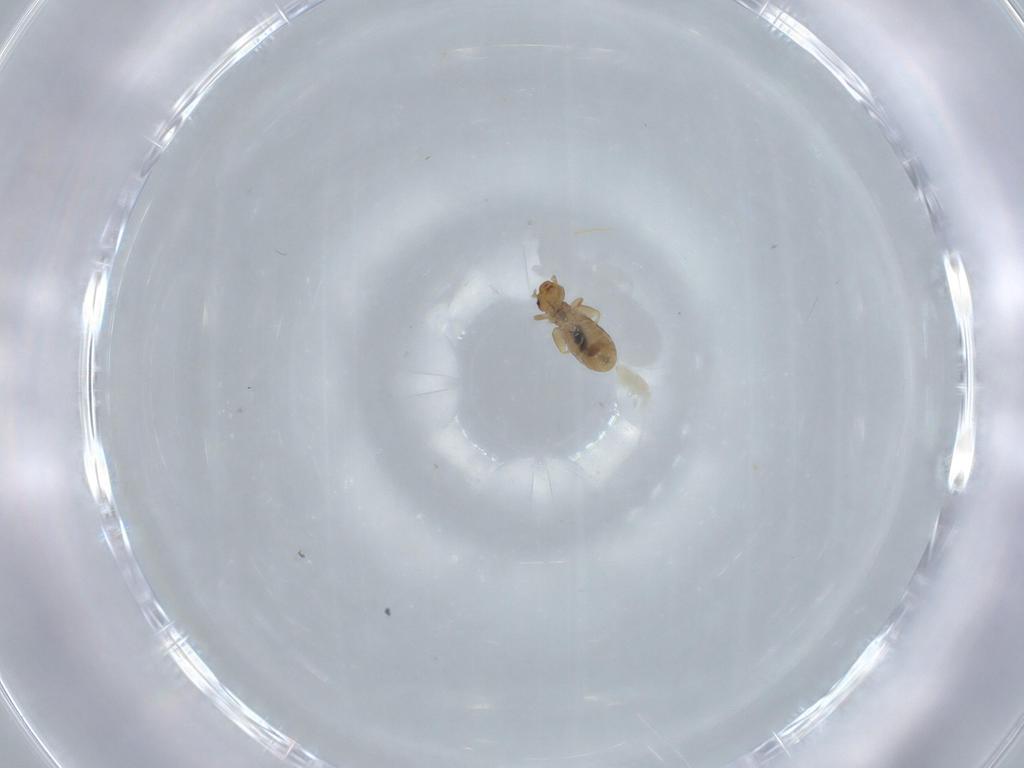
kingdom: Animalia
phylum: Arthropoda
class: Insecta
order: Psocodea
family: Liposcelididae
